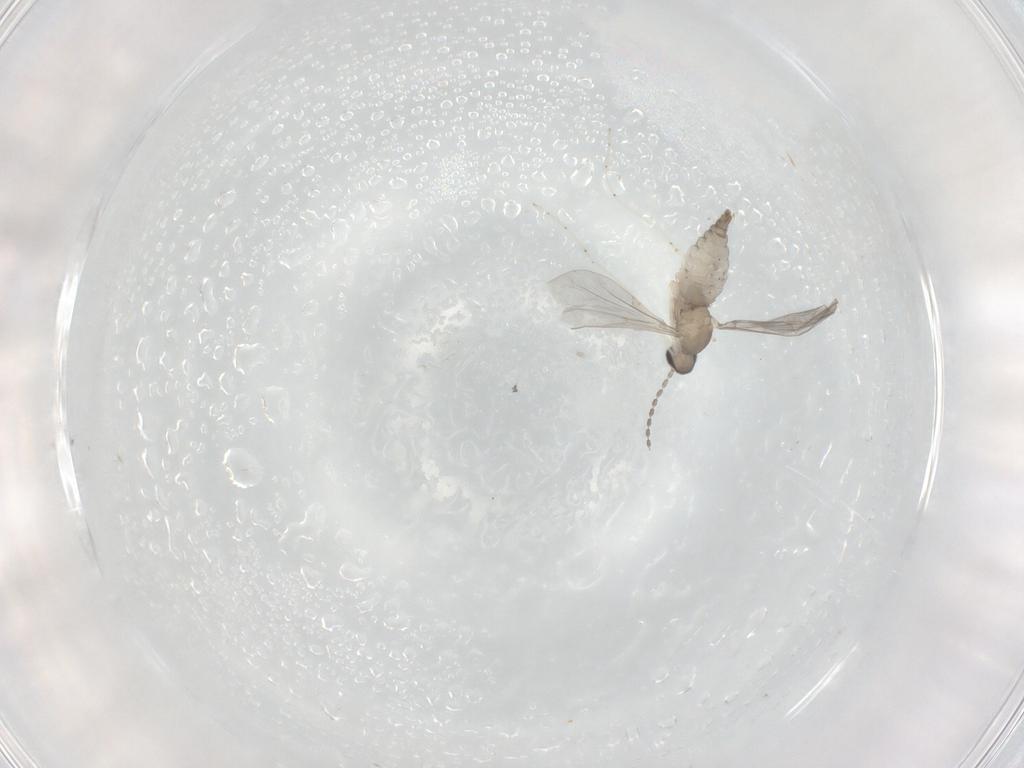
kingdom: Animalia
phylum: Arthropoda
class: Insecta
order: Diptera
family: Cecidomyiidae
